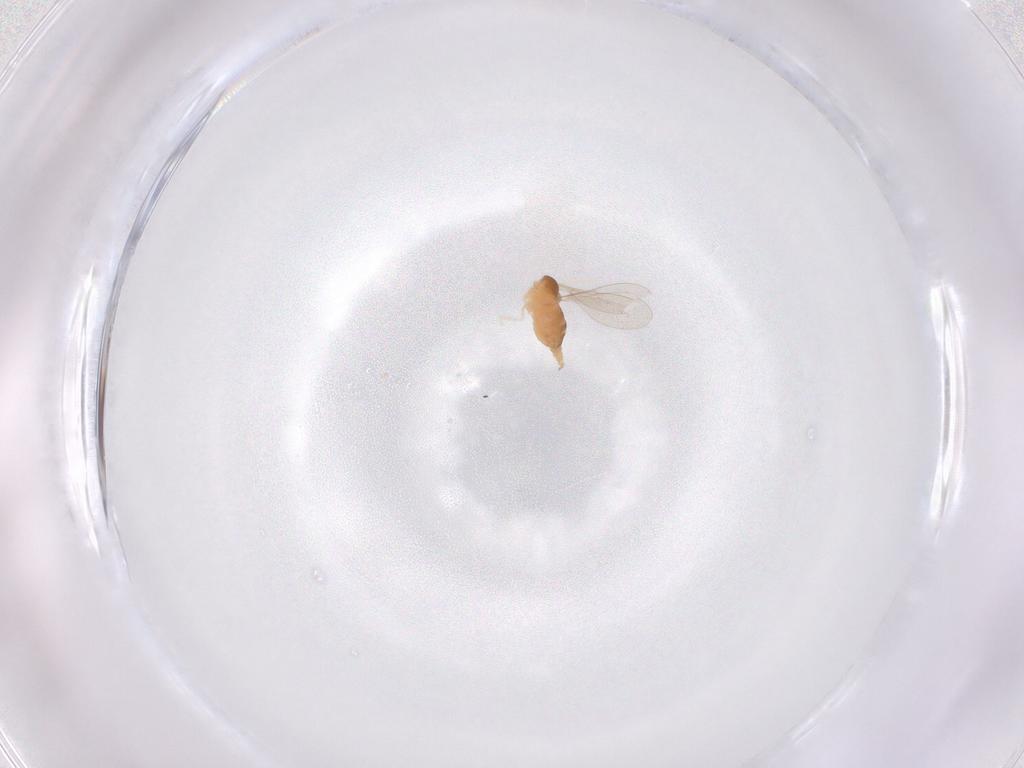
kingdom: Animalia
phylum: Arthropoda
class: Insecta
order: Diptera
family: Cecidomyiidae
